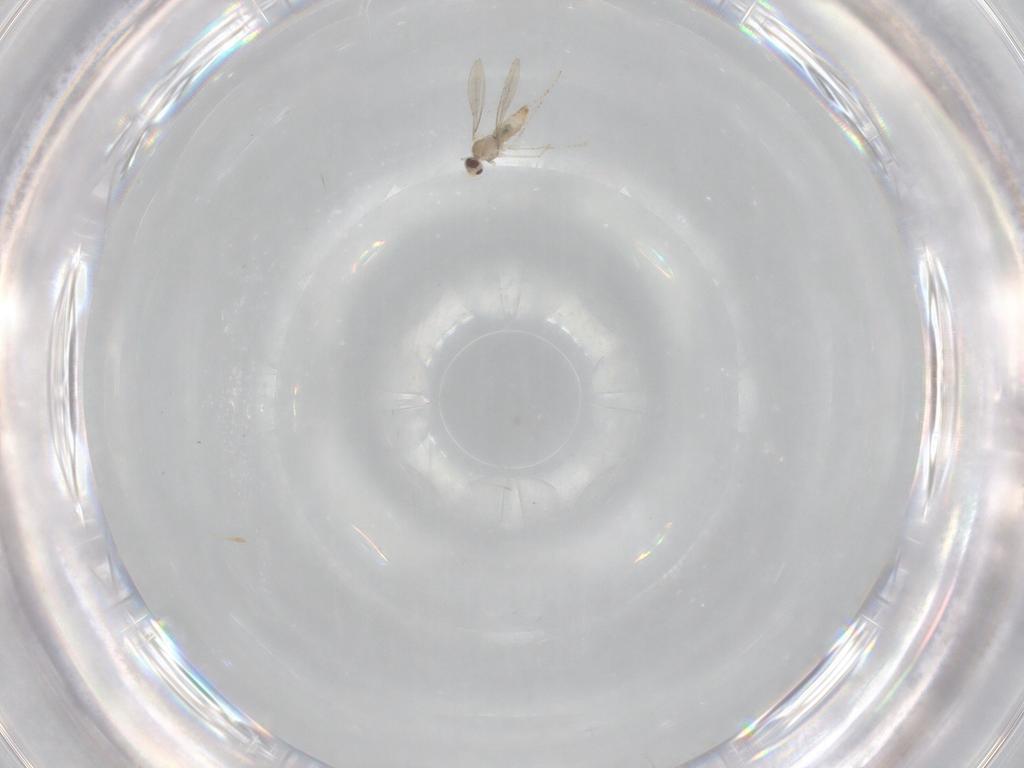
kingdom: Animalia
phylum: Arthropoda
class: Insecta
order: Diptera
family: Cecidomyiidae
